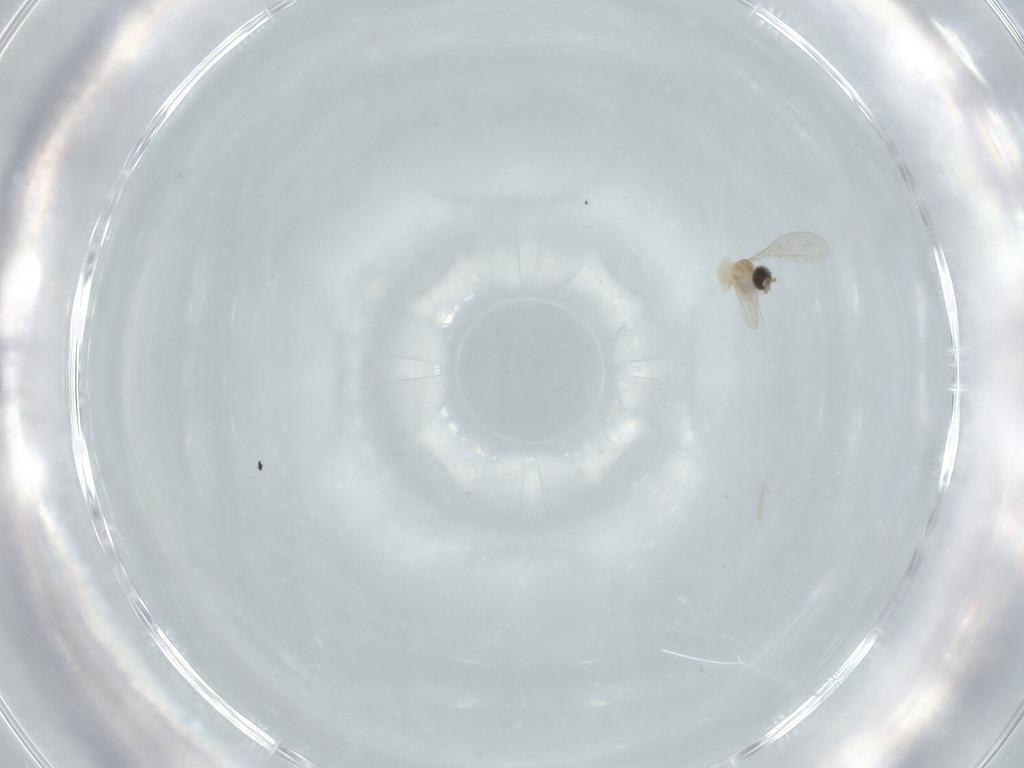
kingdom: Animalia
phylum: Arthropoda
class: Insecta
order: Diptera
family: Cecidomyiidae
